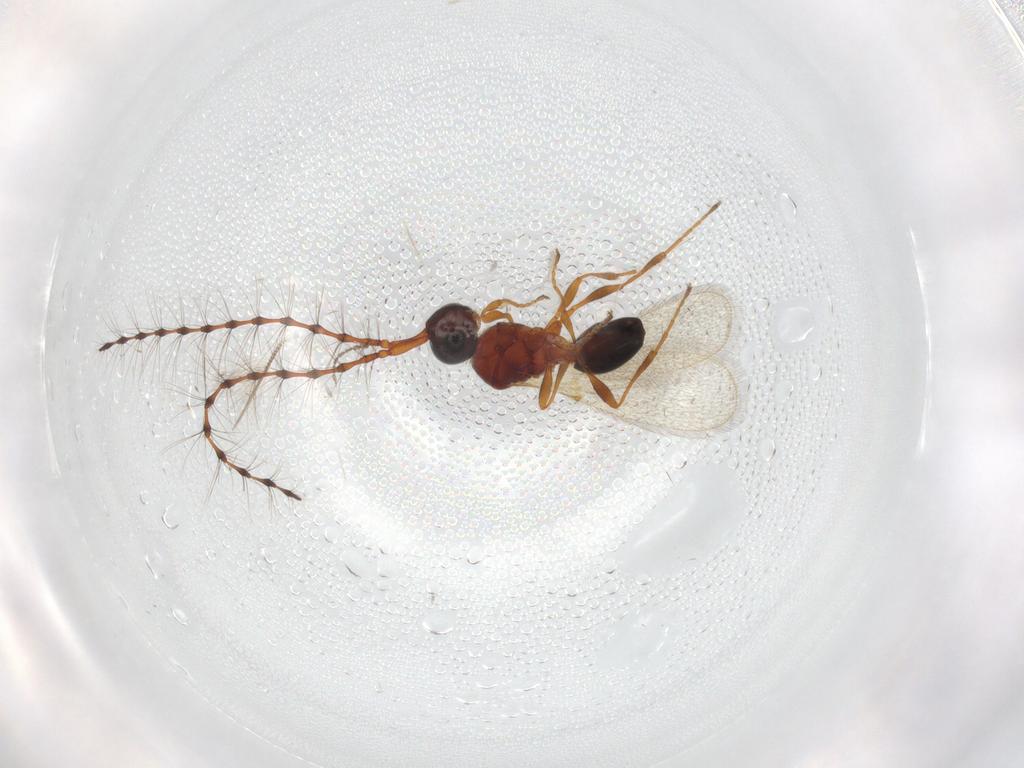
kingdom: Animalia
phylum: Arthropoda
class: Insecta
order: Hymenoptera
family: Diapriidae
